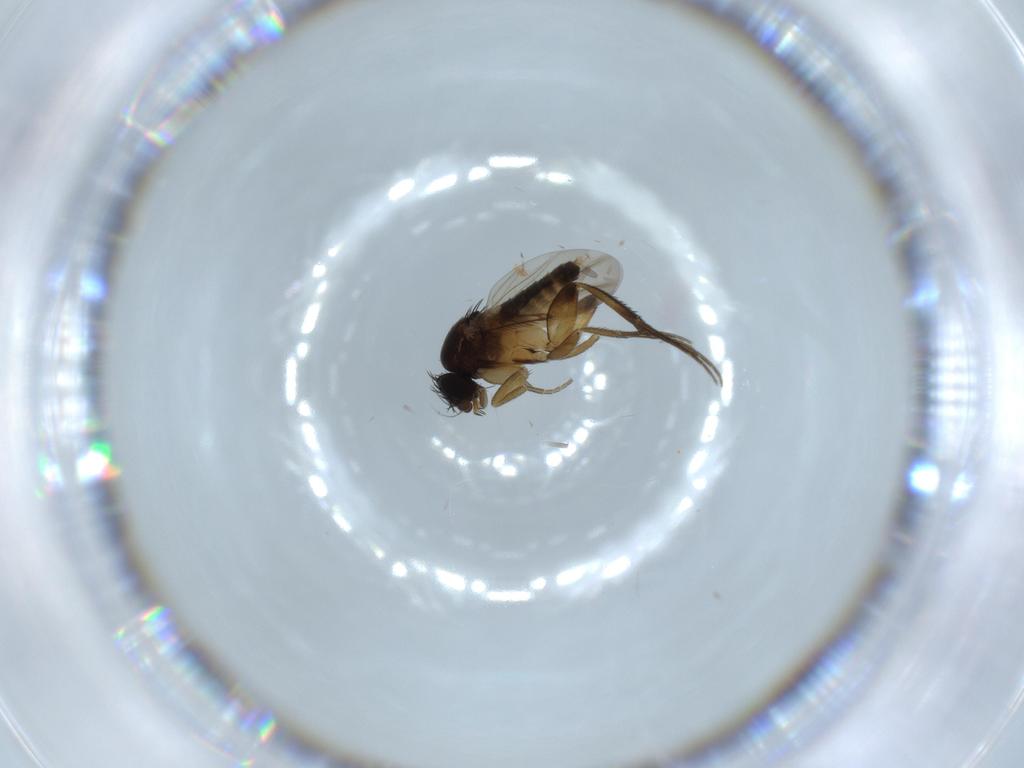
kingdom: Animalia
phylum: Arthropoda
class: Insecta
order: Diptera
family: Phoridae
